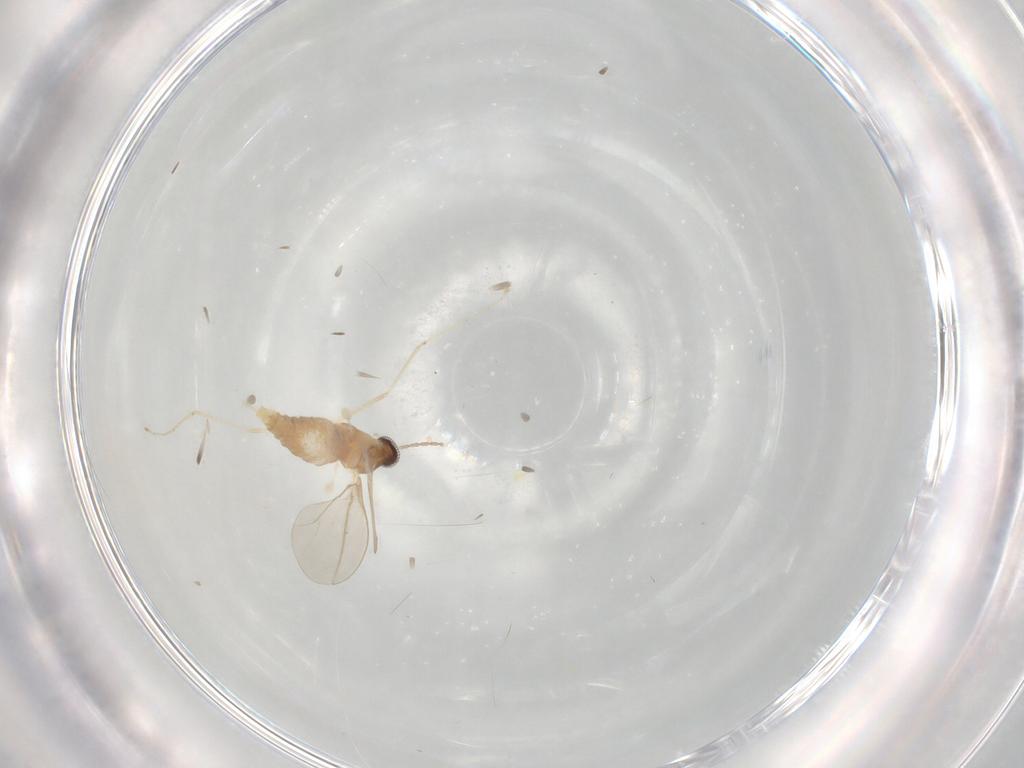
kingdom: Animalia
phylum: Arthropoda
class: Insecta
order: Diptera
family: Cecidomyiidae
